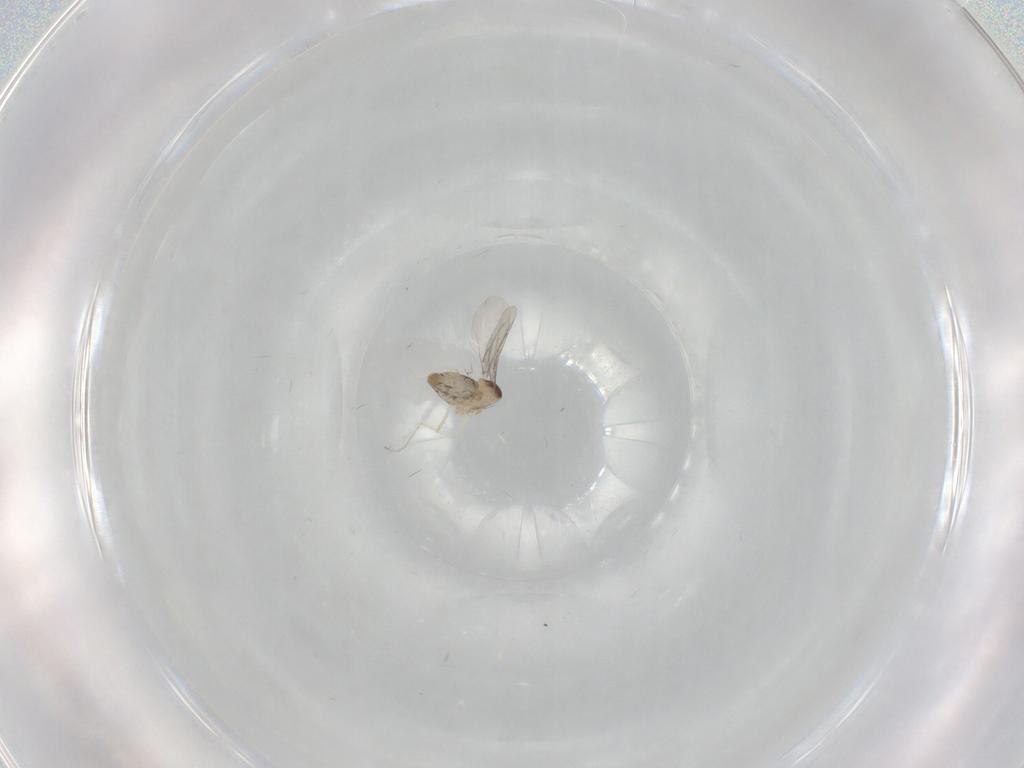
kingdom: Animalia
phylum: Arthropoda
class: Insecta
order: Diptera
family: Cecidomyiidae
